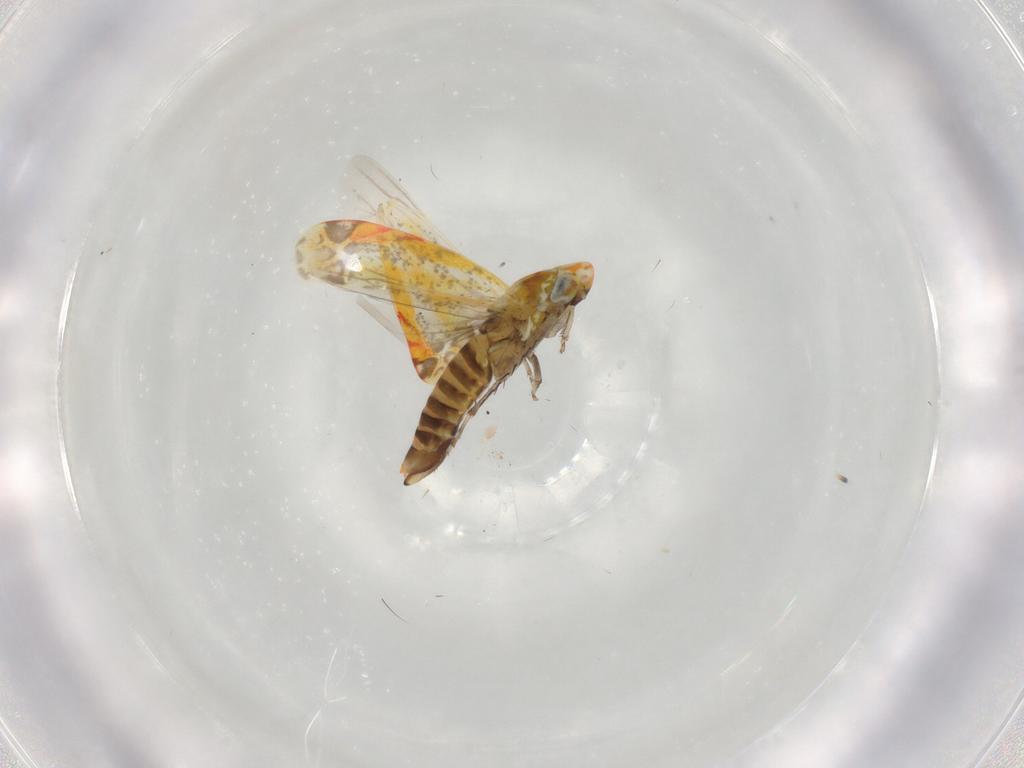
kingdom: Animalia
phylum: Arthropoda
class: Insecta
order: Hemiptera
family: Cicadellidae
